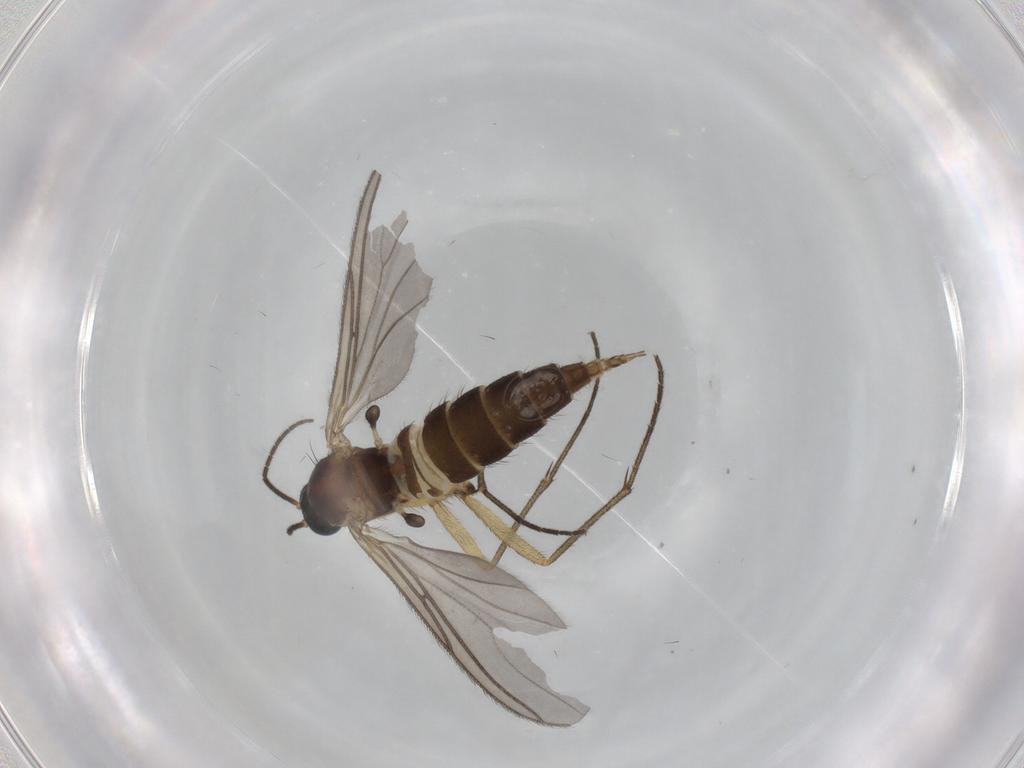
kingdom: Animalia
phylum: Arthropoda
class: Insecta
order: Diptera
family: Sciaridae
